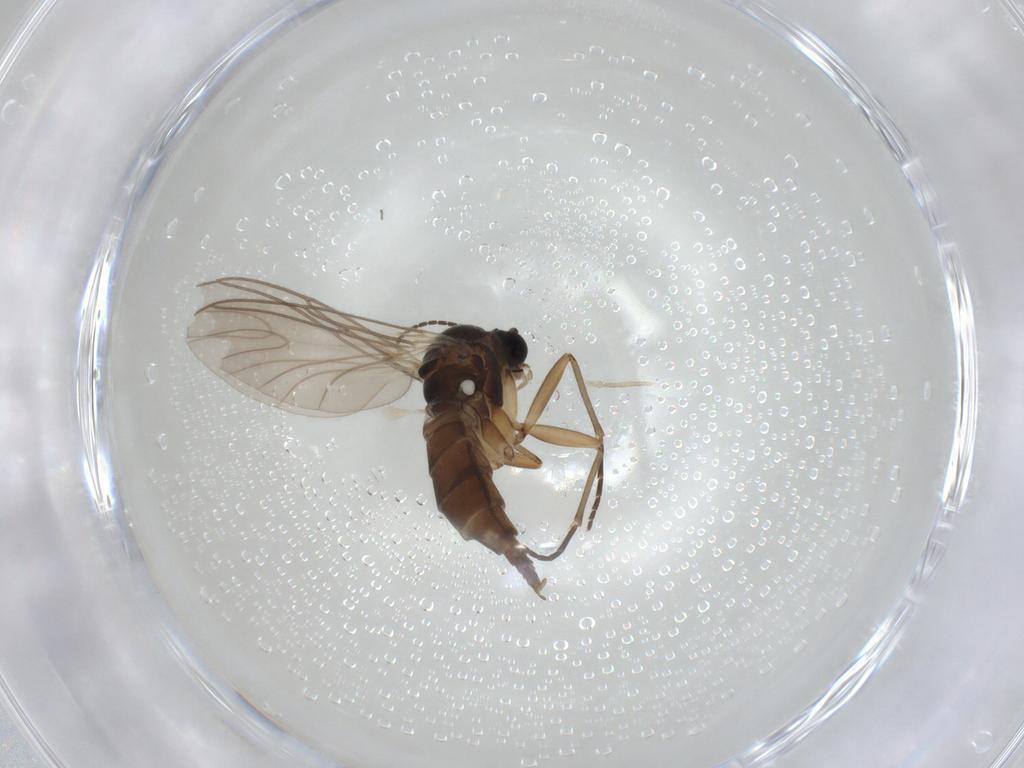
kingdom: Animalia
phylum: Arthropoda
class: Insecta
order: Diptera
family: Sciaridae
